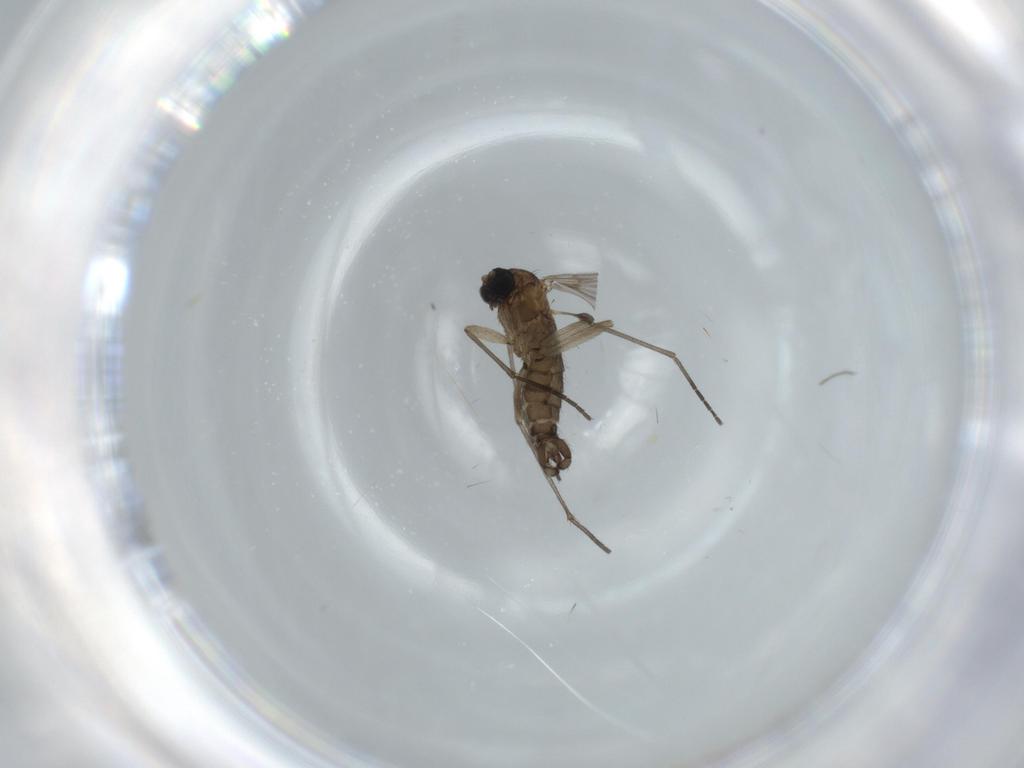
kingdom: Animalia
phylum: Arthropoda
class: Insecta
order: Diptera
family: Sciaridae
